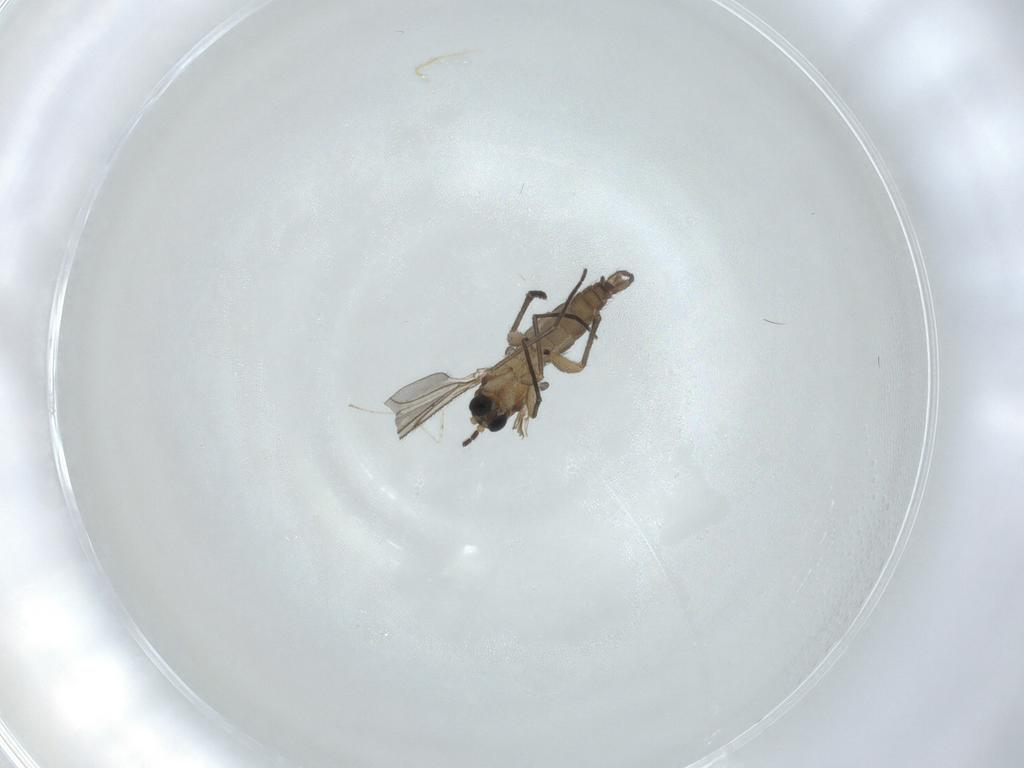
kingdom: Animalia
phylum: Arthropoda
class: Insecta
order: Diptera
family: Sciaridae
